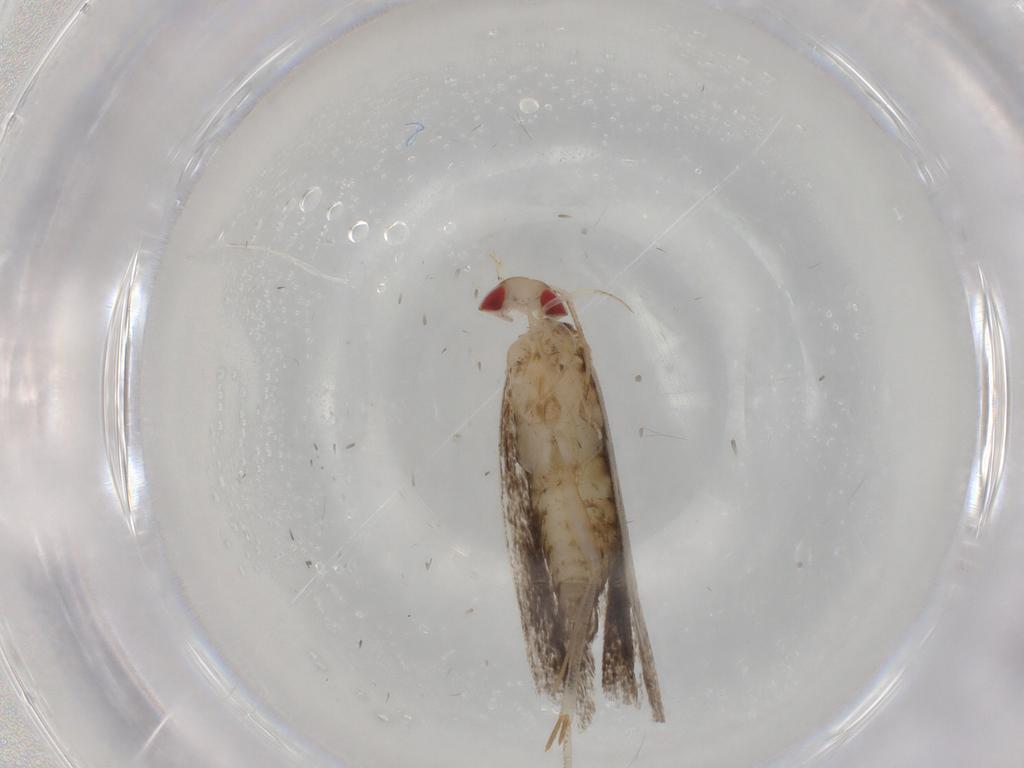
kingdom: Animalia
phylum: Arthropoda
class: Insecta
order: Lepidoptera
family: Gelechiidae
